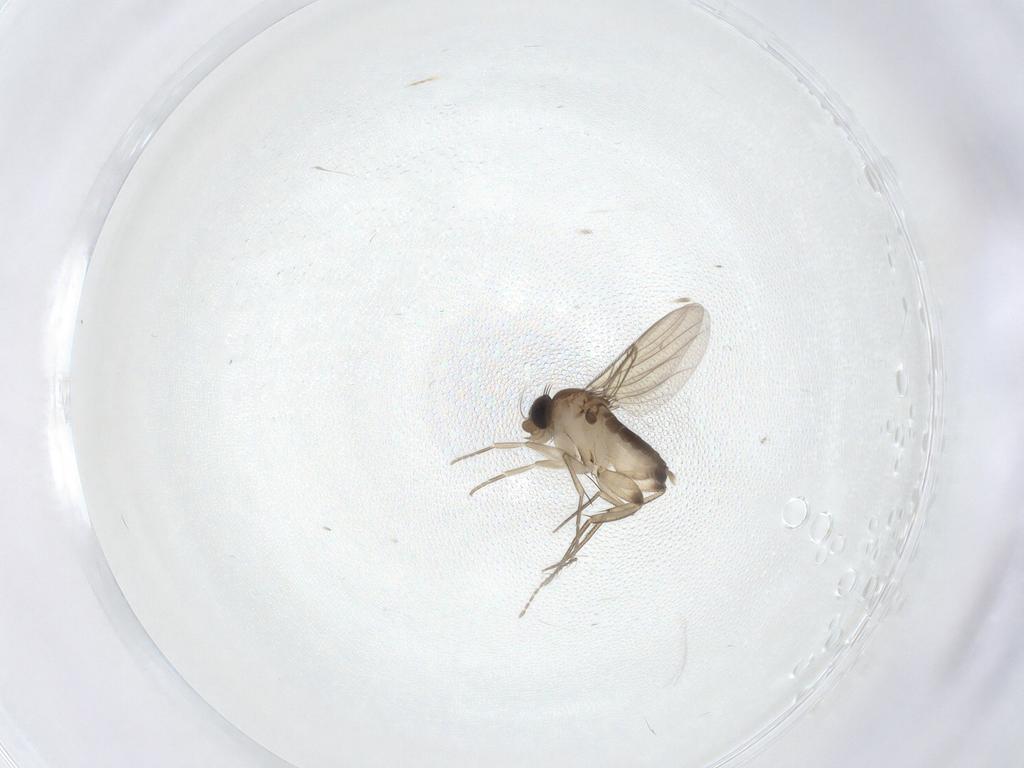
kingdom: Animalia
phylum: Arthropoda
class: Insecta
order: Diptera
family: Phoridae
